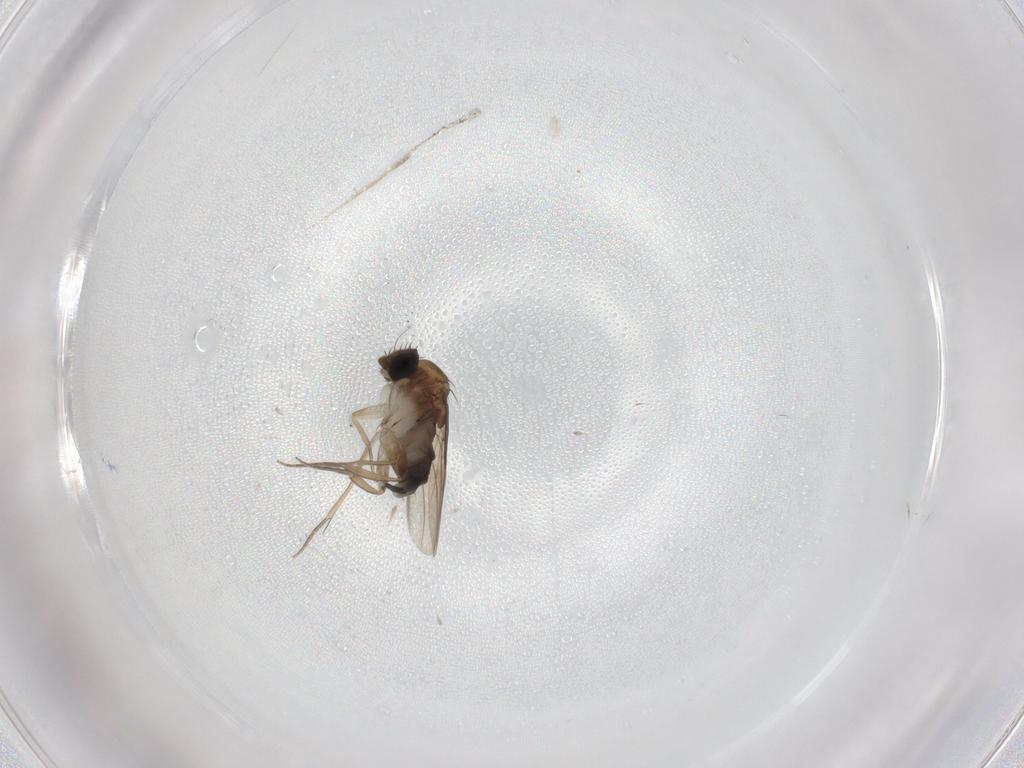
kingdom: Animalia
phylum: Arthropoda
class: Insecta
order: Diptera
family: Phoridae
